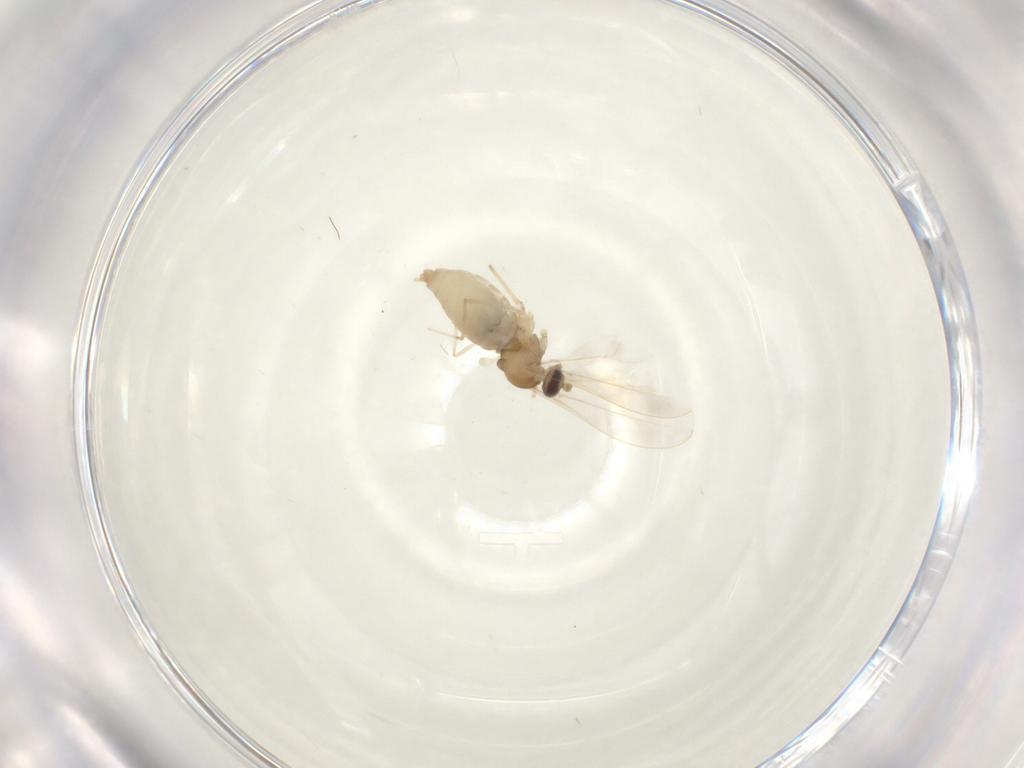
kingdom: Animalia
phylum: Arthropoda
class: Insecta
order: Diptera
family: Cecidomyiidae
